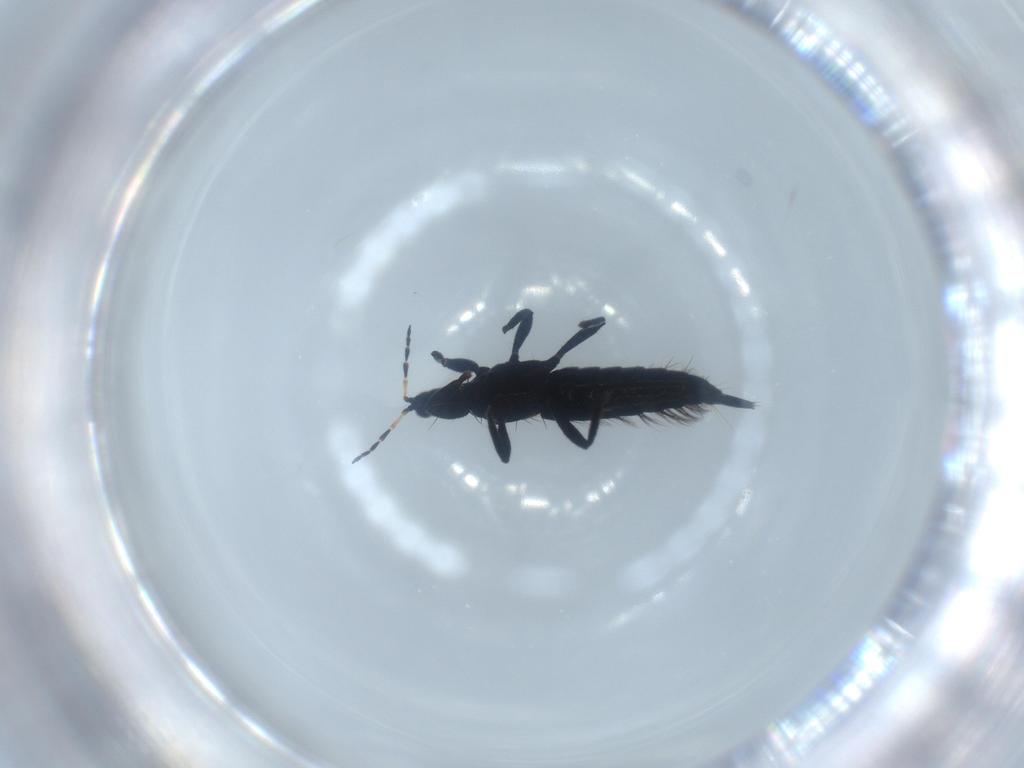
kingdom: Animalia
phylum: Arthropoda
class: Insecta
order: Thysanoptera
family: Phlaeothripidae
